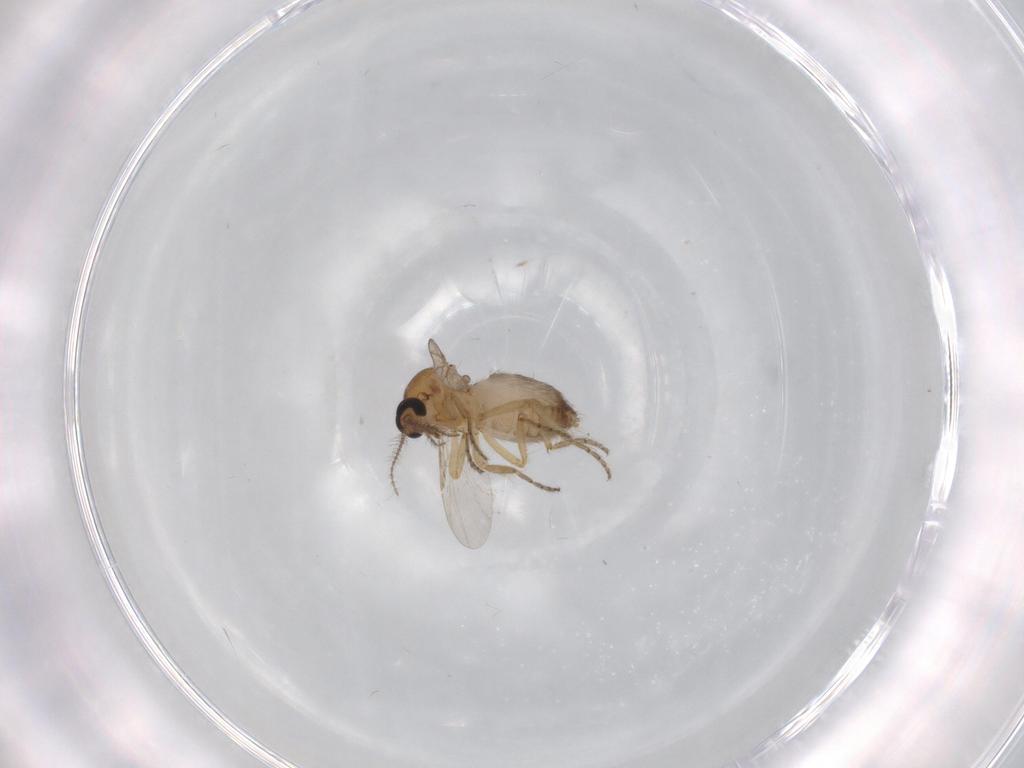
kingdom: Animalia
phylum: Arthropoda
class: Insecta
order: Diptera
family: Ceratopogonidae
